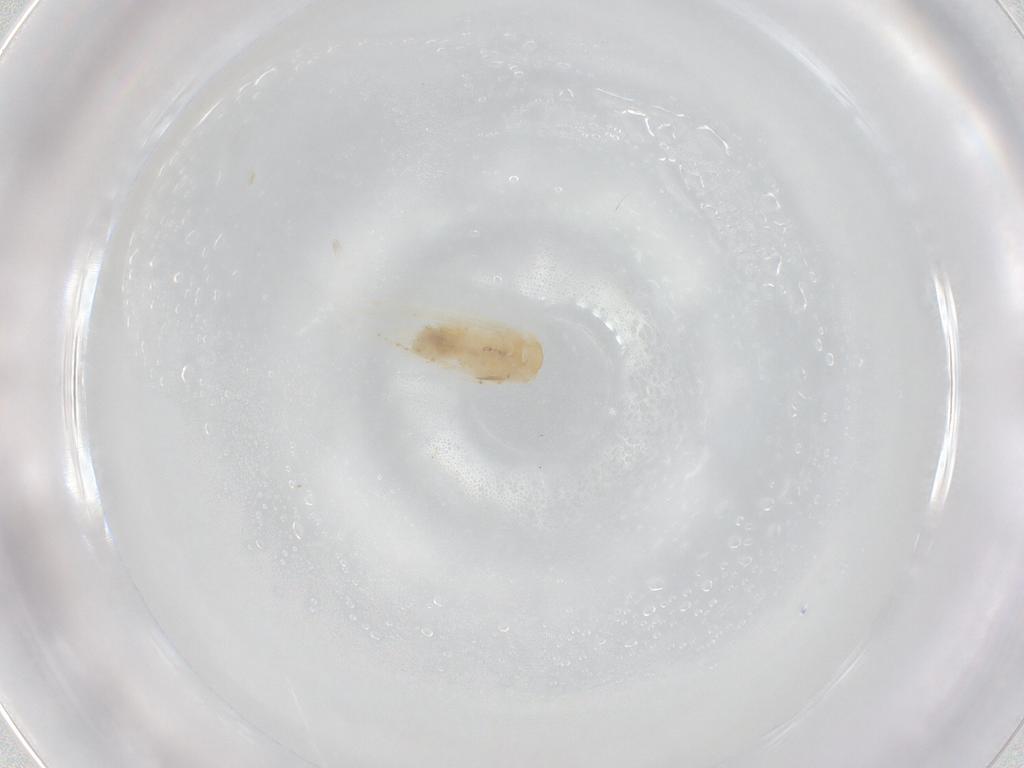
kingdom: Animalia
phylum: Arthropoda
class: Insecta
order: Lepidoptera
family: Nepticulidae
